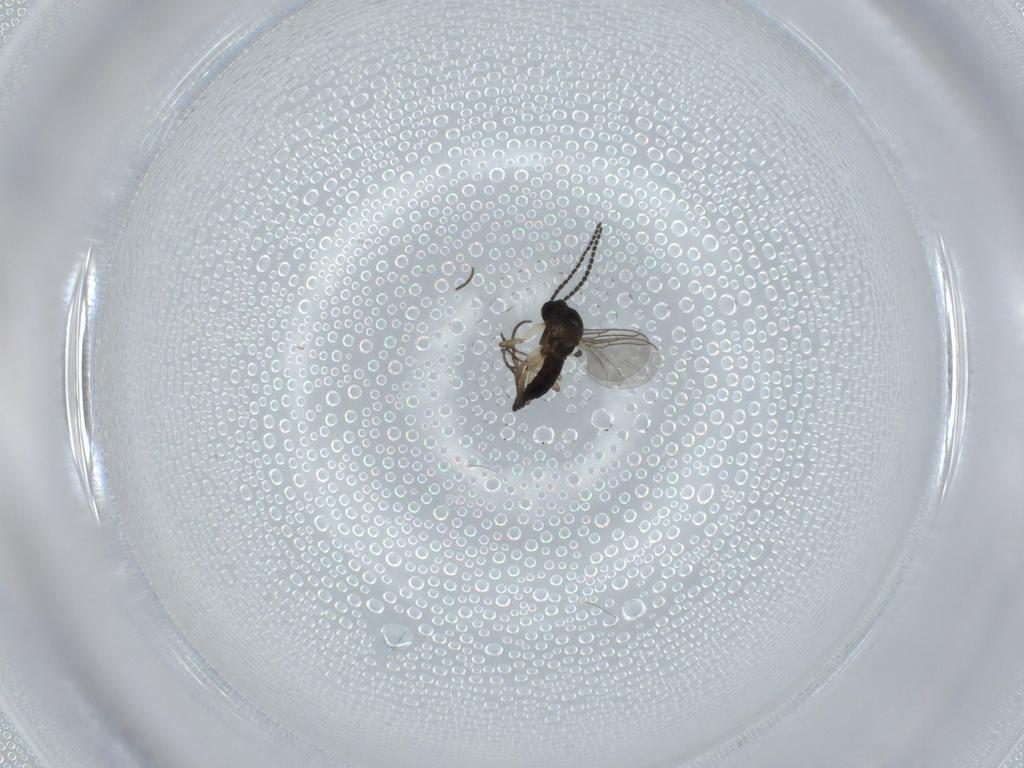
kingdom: Animalia
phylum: Arthropoda
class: Insecta
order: Diptera
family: Sciaridae
